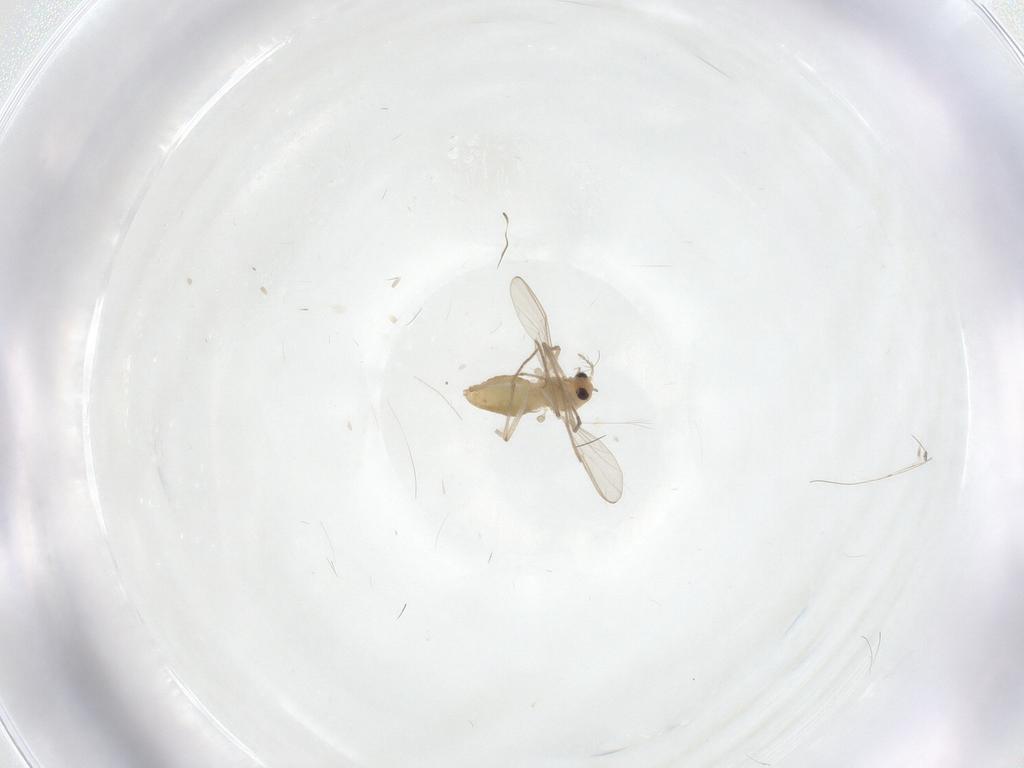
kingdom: Animalia
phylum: Arthropoda
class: Insecta
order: Diptera
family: Chironomidae
